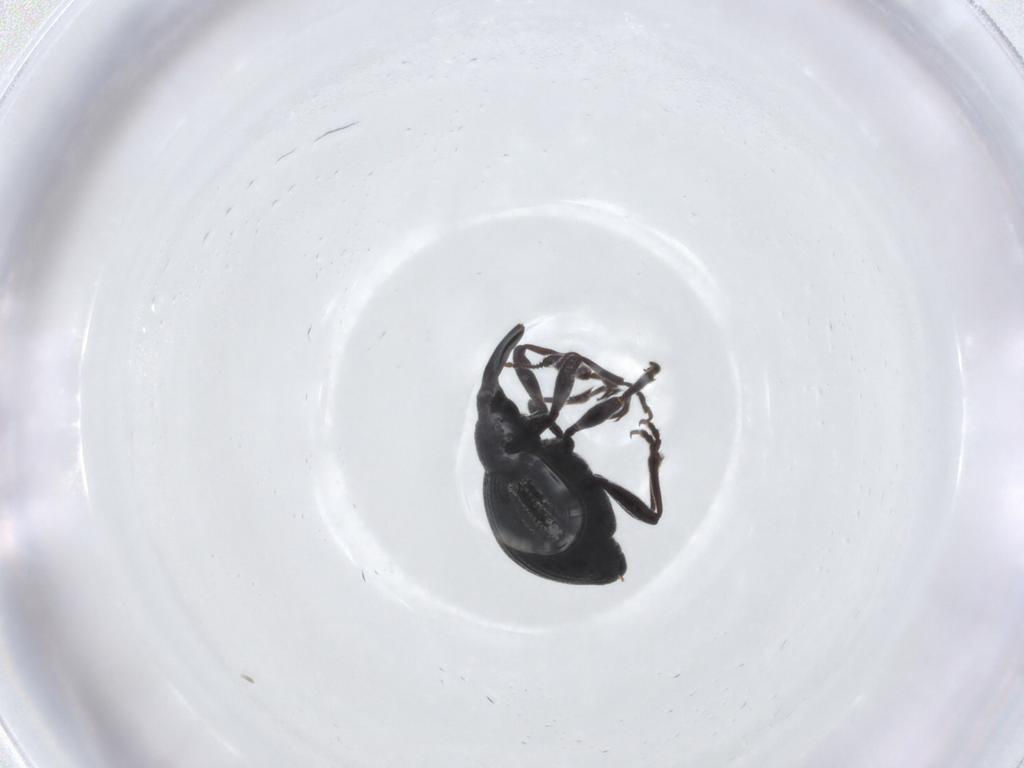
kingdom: Animalia
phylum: Arthropoda
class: Insecta
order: Coleoptera
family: Brentidae
